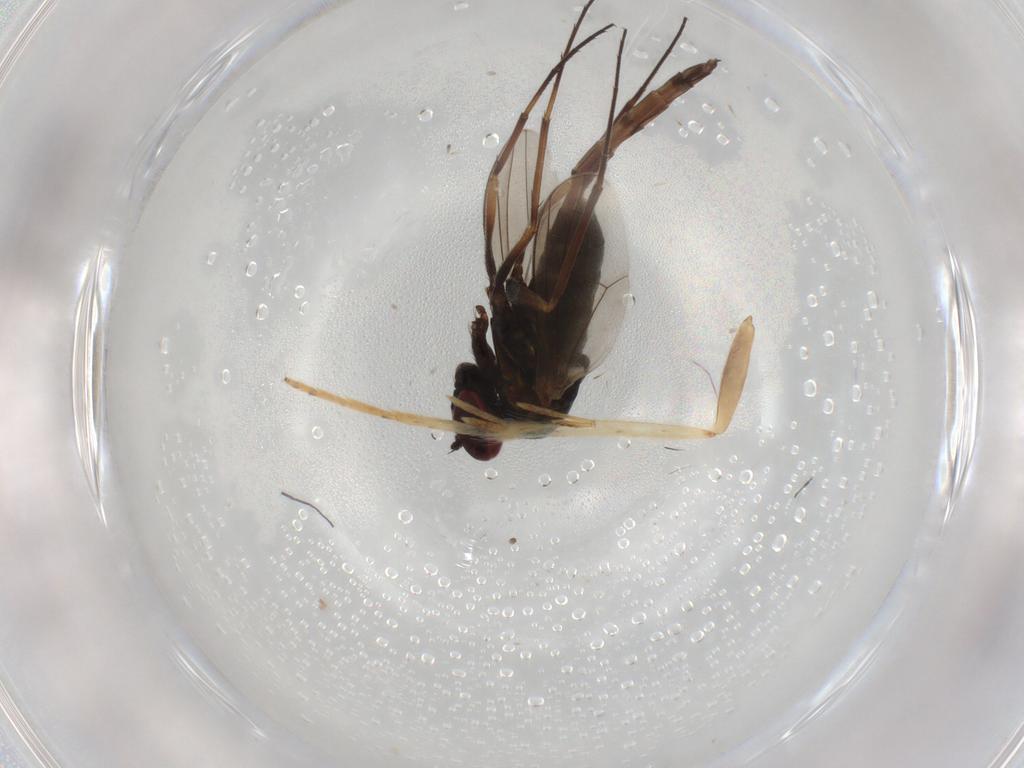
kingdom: Animalia
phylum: Arthropoda
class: Insecta
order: Diptera
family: Dolichopodidae
